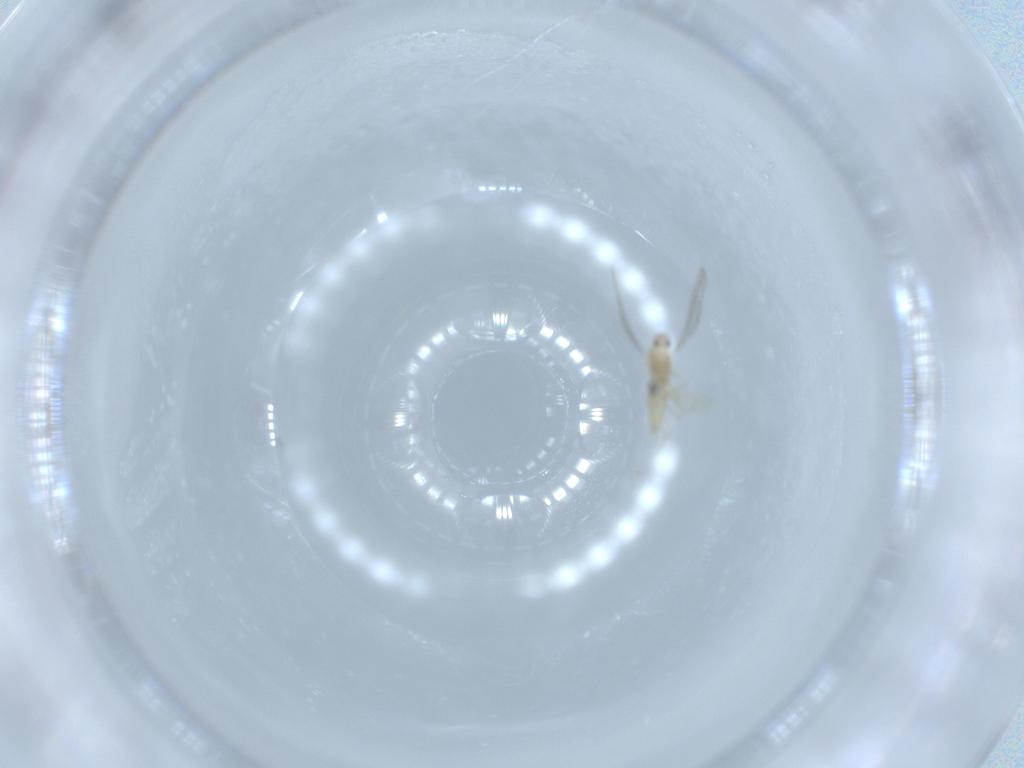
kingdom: Animalia
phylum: Arthropoda
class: Insecta
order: Diptera
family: Cecidomyiidae
